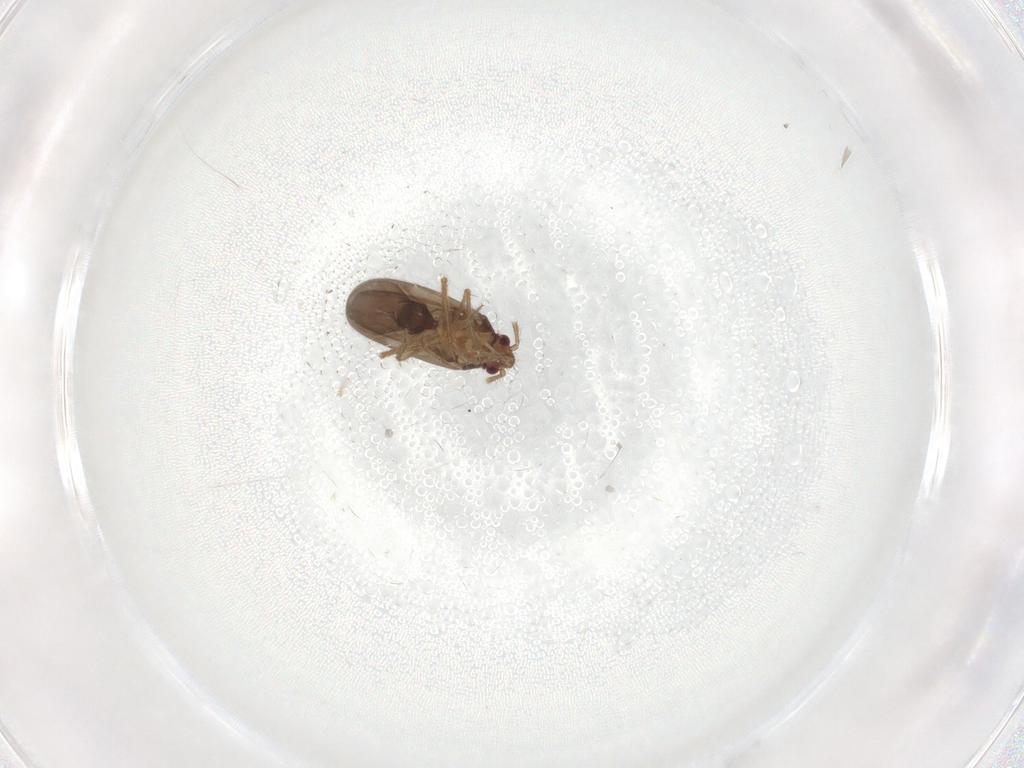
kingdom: Animalia
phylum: Arthropoda
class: Insecta
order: Hemiptera
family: Ceratocombidae
